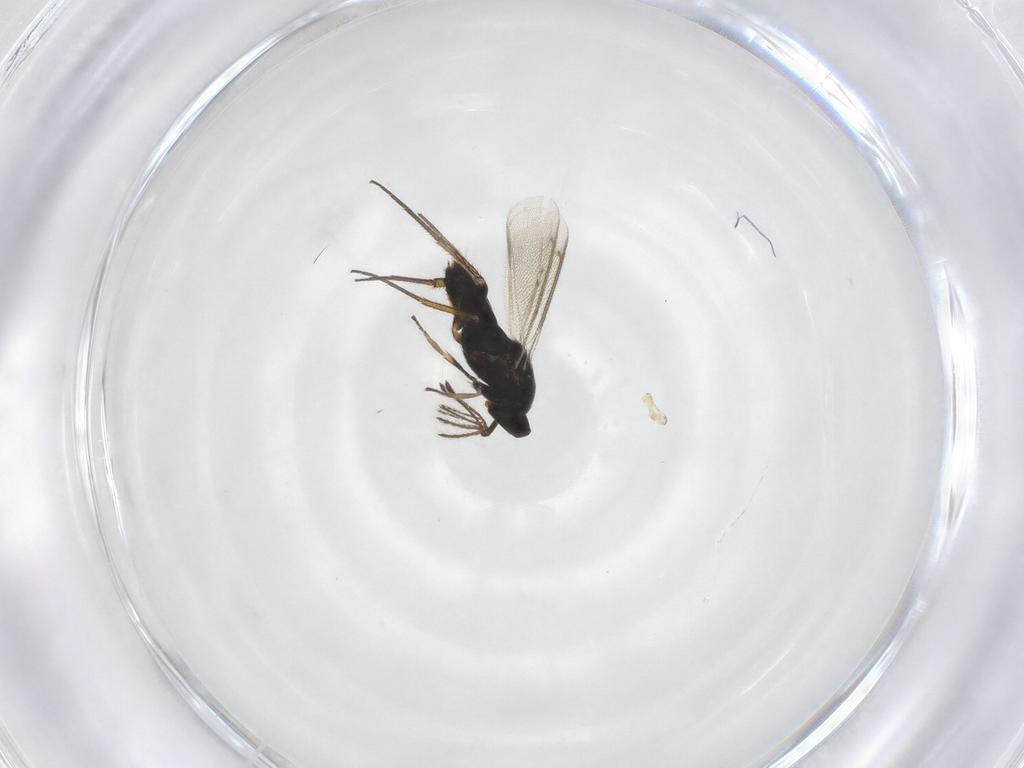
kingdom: Animalia
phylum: Arthropoda
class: Insecta
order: Hymenoptera
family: Eulophidae
